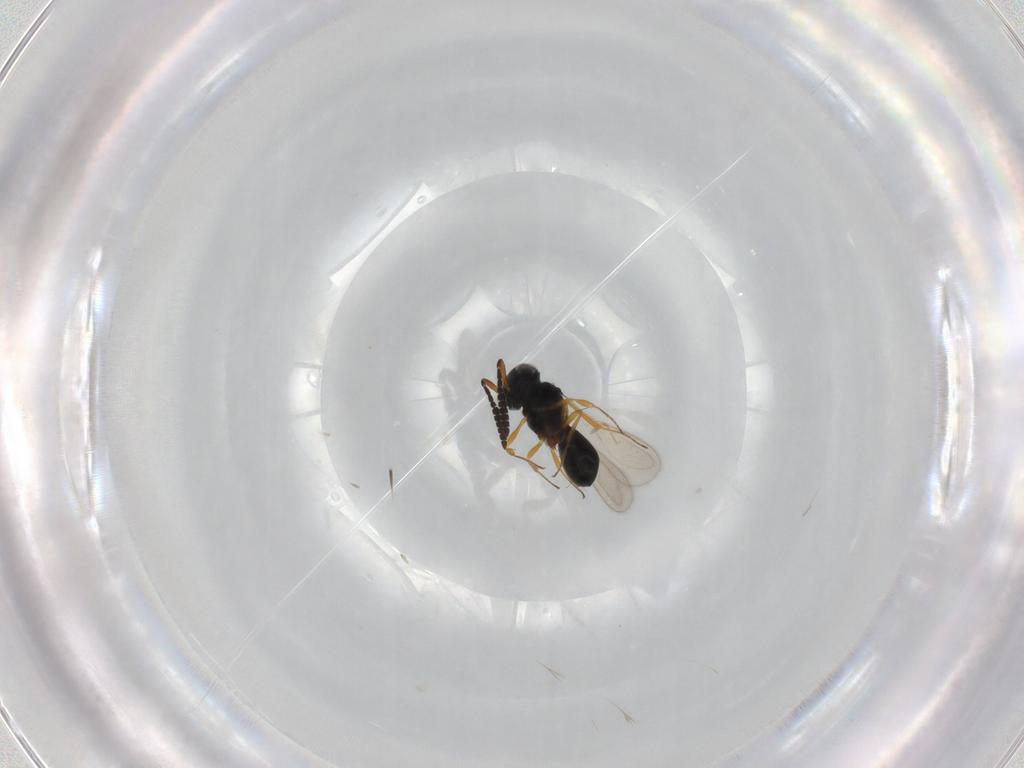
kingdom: Animalia
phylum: Arthropoda
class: Insecta
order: Hymenoptera
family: Scelionidae
